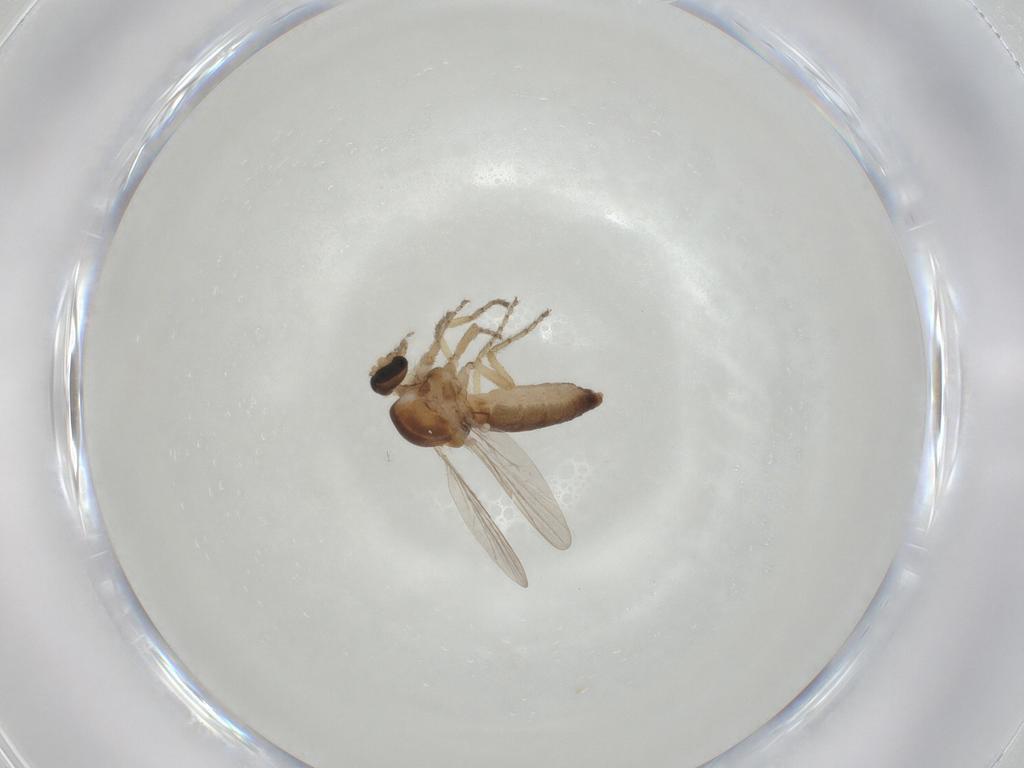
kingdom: Animalia
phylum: Arthropoda
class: Insecta
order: Diptera
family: Ceratopogonidae
